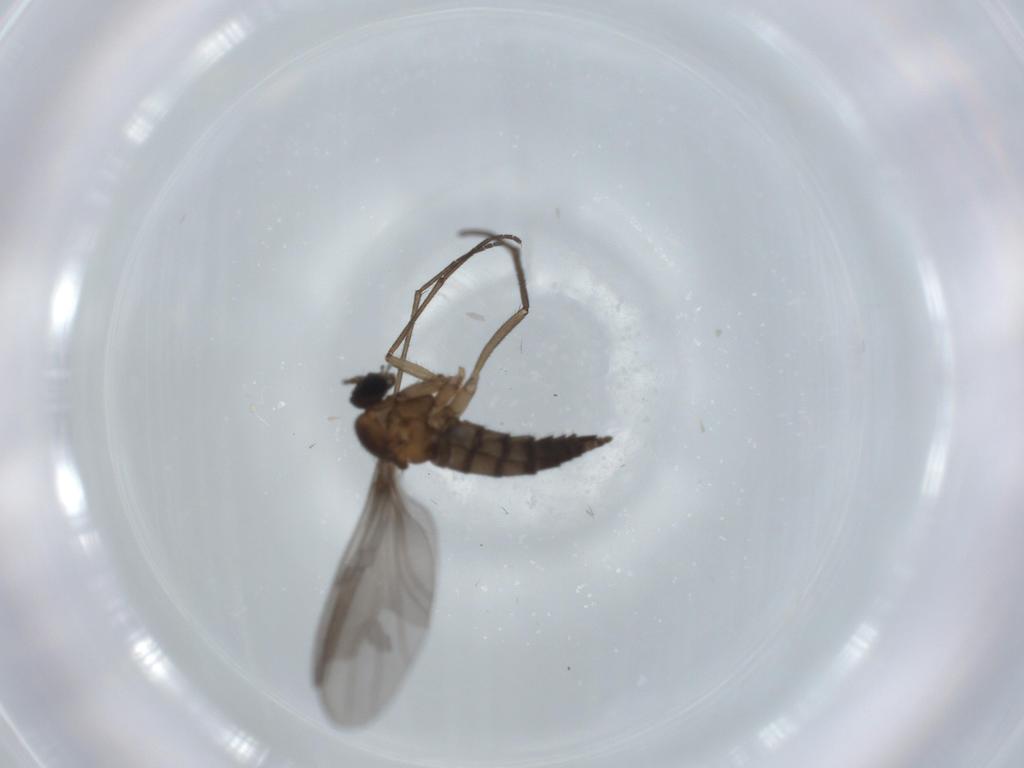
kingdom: Animalia
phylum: Arthropoda
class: Insecta
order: Diptera
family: Sciaridae
